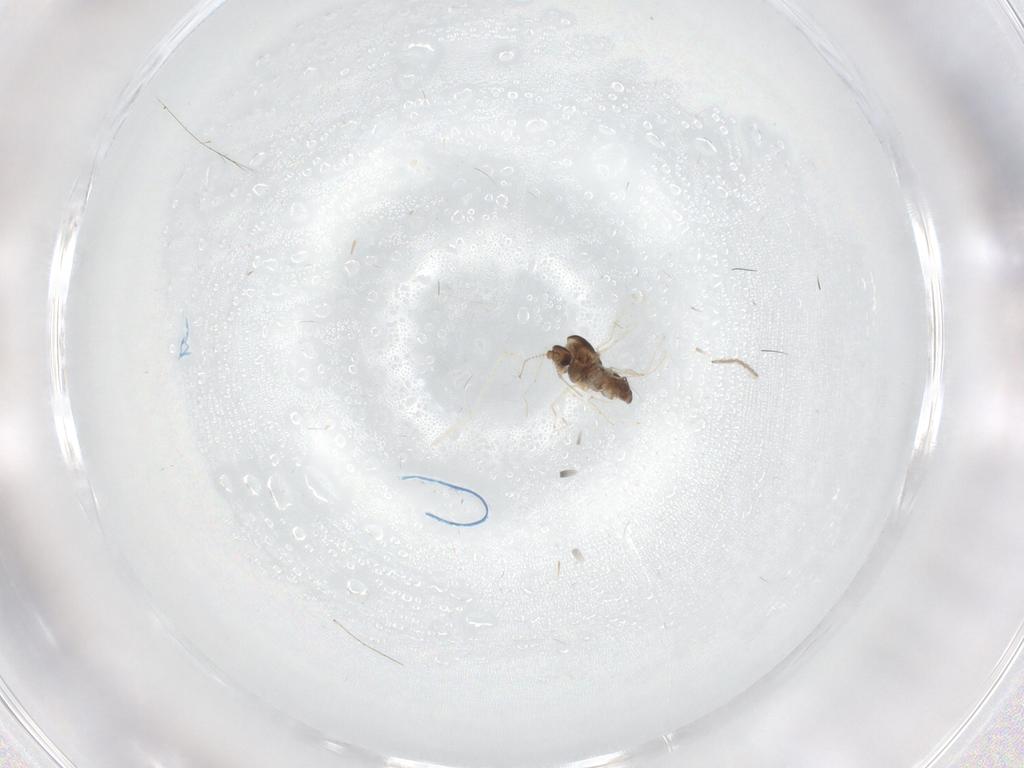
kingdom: Animalia
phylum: Arthropoda
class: Insecta
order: Diptera
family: Chironomidae
